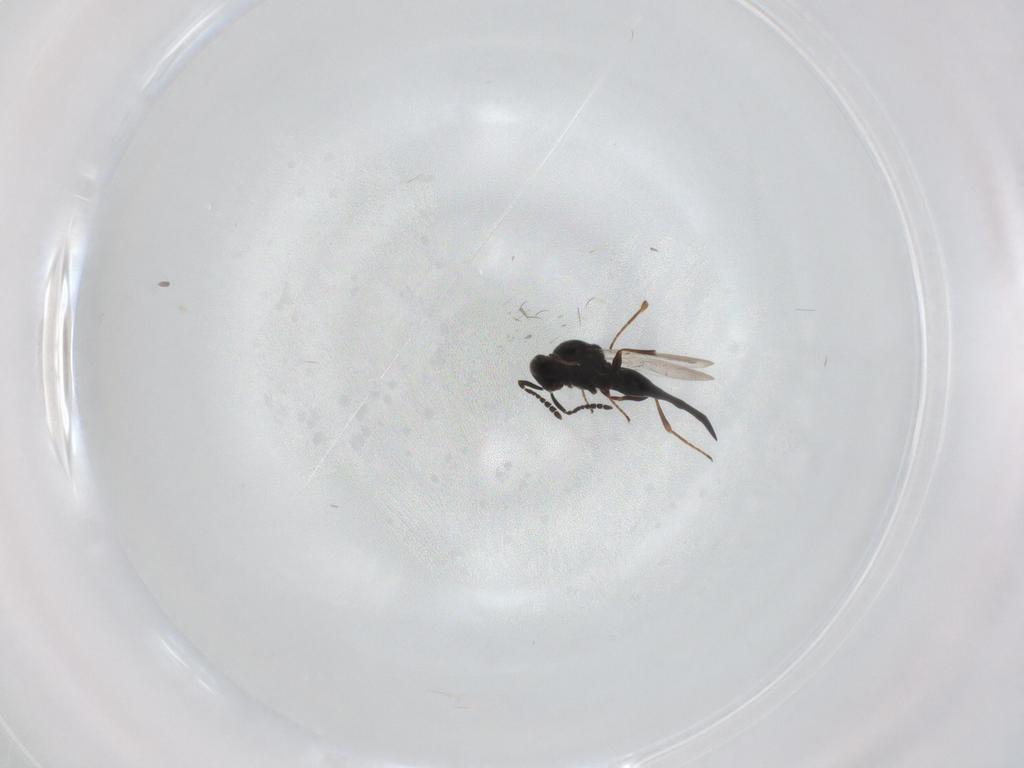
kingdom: Animalia
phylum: Arthropoda
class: Insecta
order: Hymenoptera
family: Platygastridae
